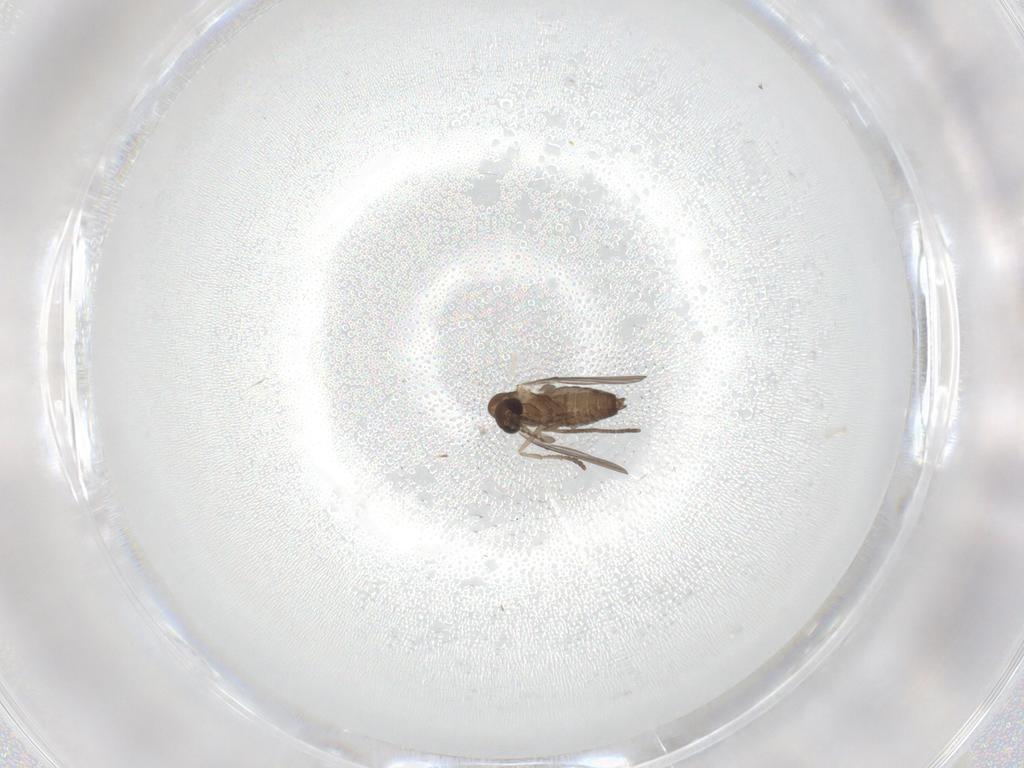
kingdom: Animalia
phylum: Arthropoda
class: Insecta
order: Diptera
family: Phoridae
